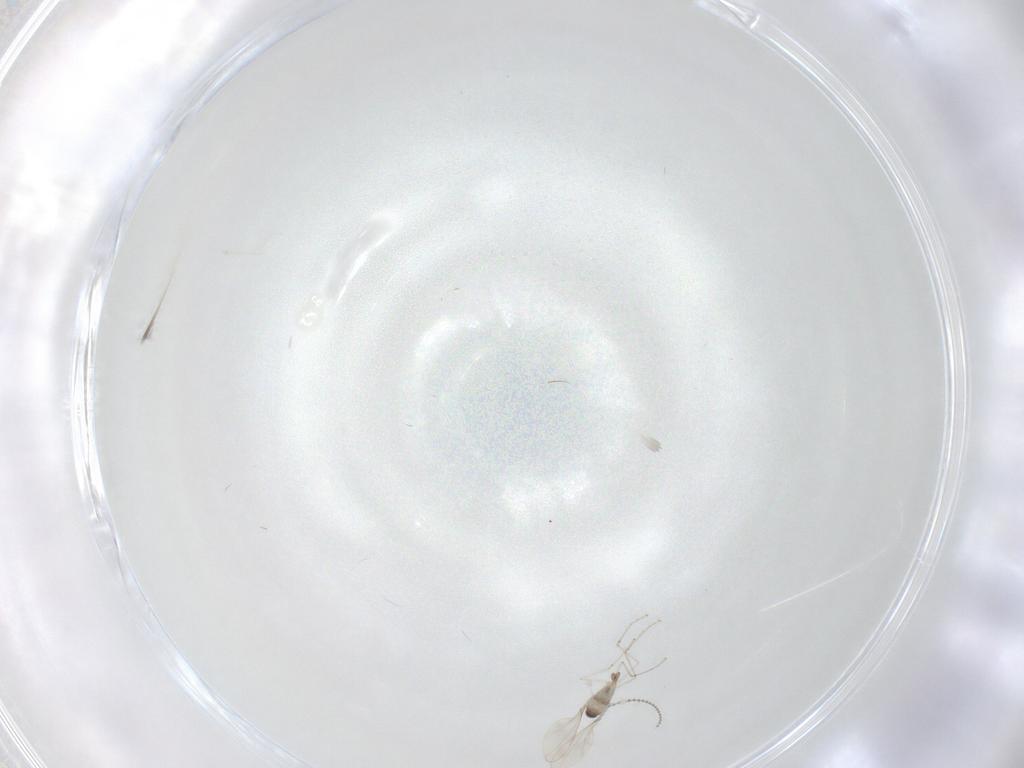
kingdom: Animalia
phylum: Arthropoda
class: Insecta
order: Diptera
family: Cecidomyiidae
